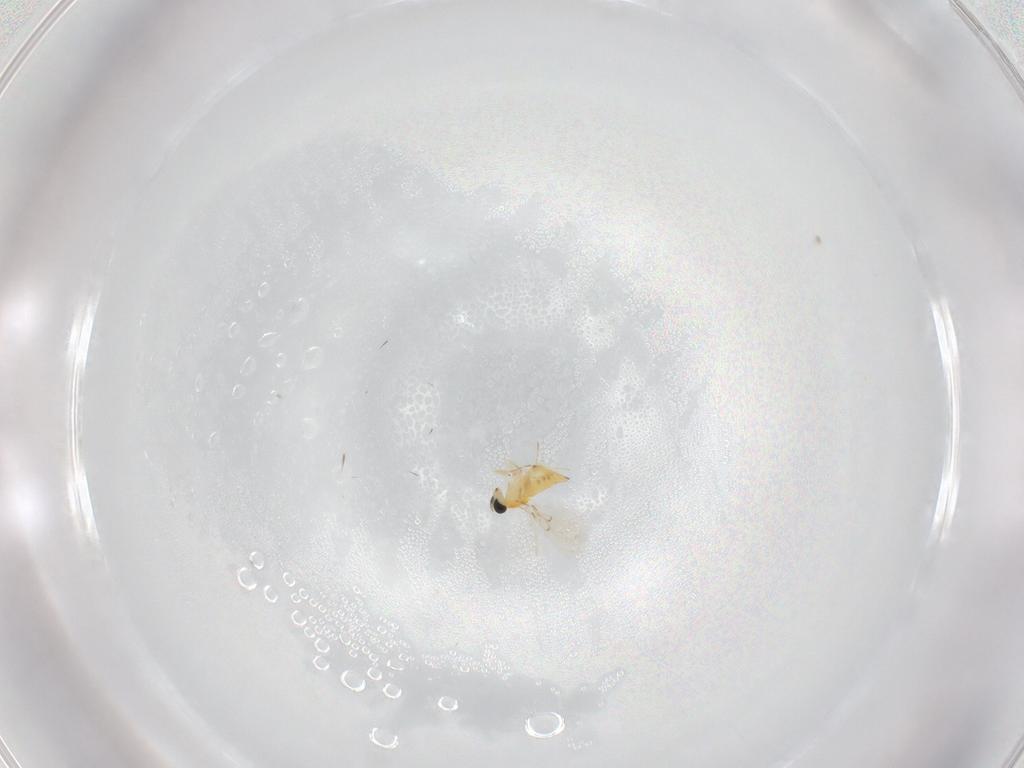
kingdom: Animalia
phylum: Arthropoda
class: Insecta
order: Hymenoptera
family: Trichogrammatidae
